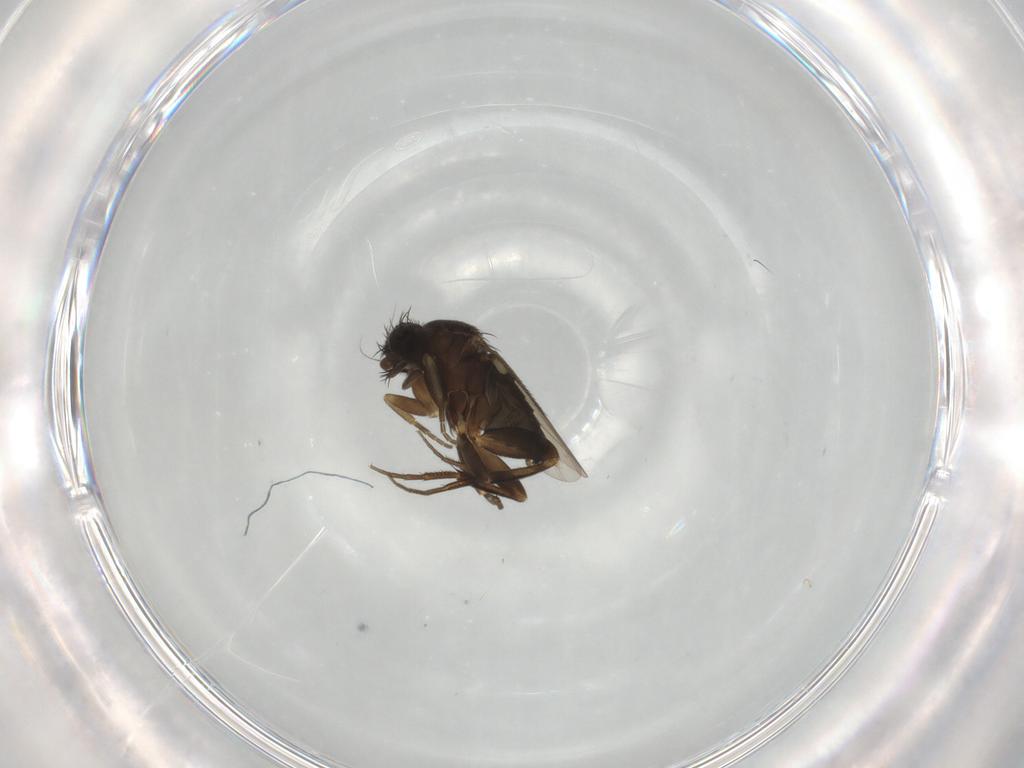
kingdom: Animalia
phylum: Arthropoda
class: Insecta
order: Diptera
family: Phoridae
